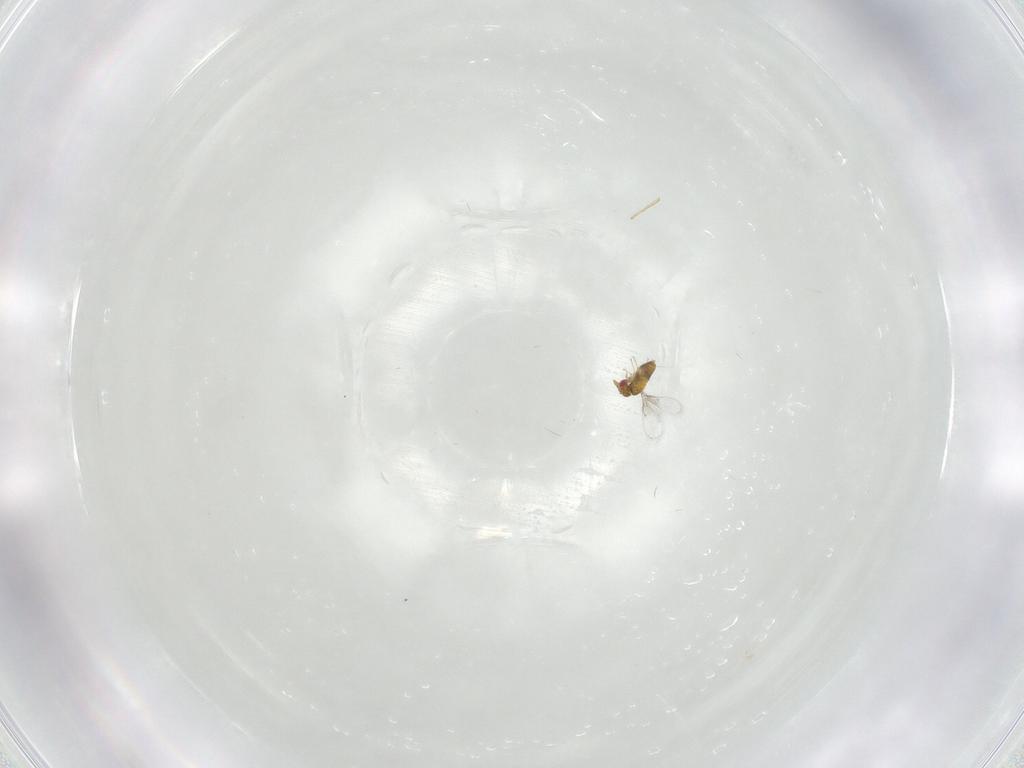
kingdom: Animalia
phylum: Arthropoda
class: Insecta
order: Hymenoptera
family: Trichogrammatidae
